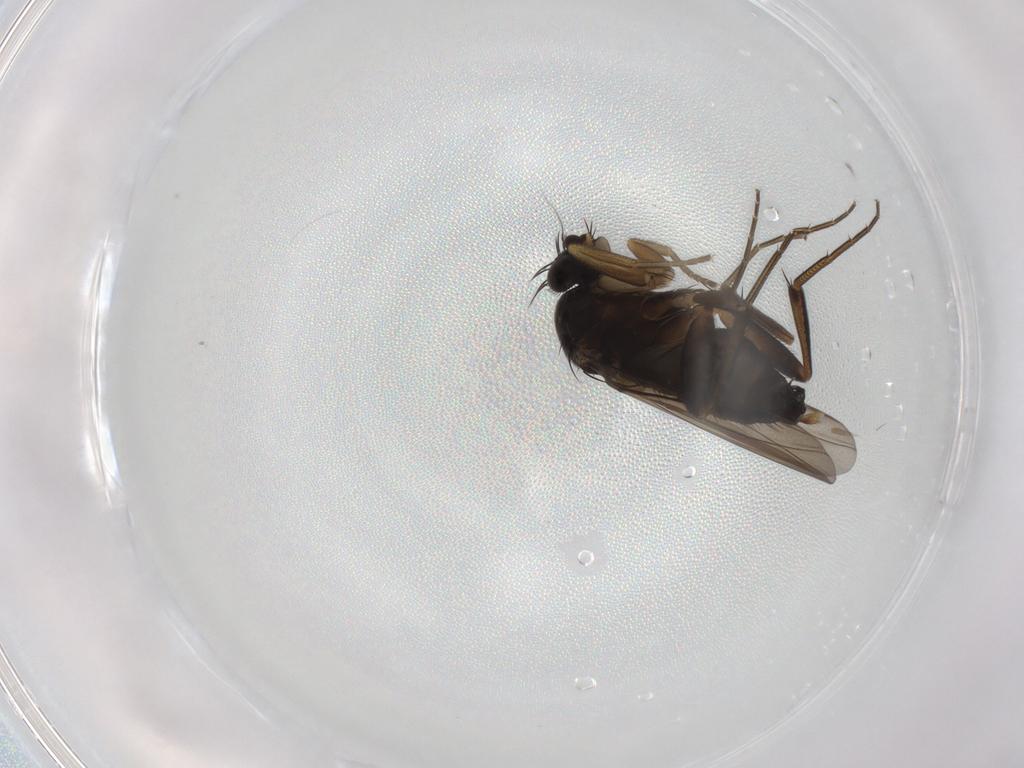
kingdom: Animalia
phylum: Arthropoda
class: Insecta
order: Diptera
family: Phoridae
